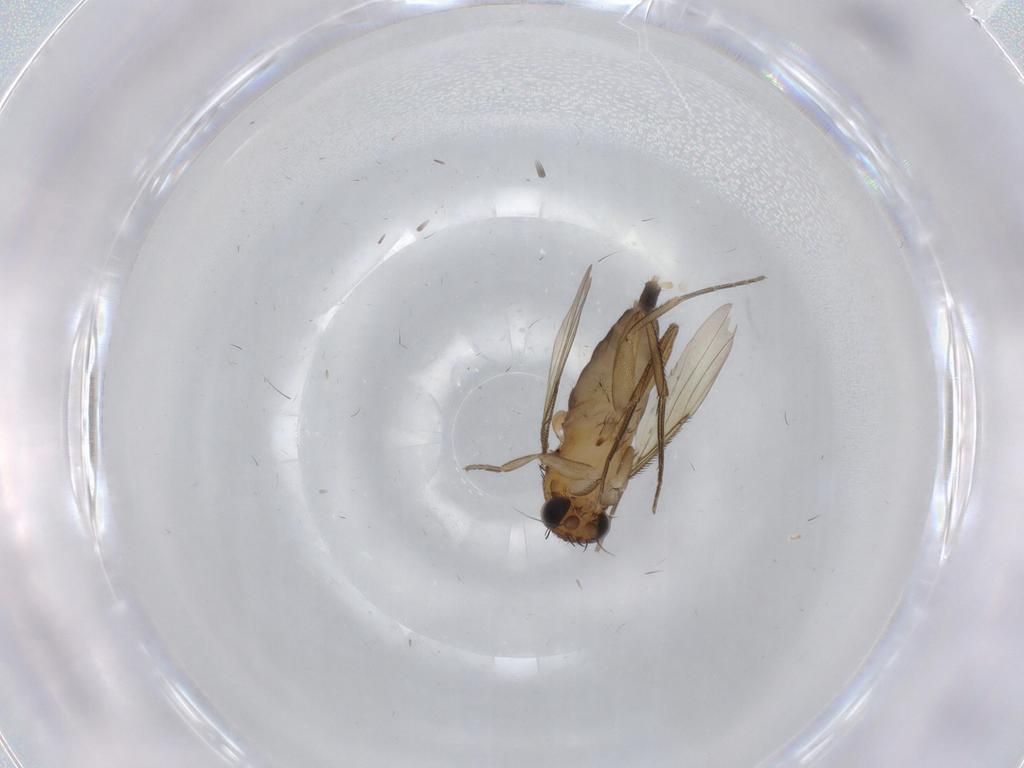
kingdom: Animalia
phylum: Arthropoda
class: Insecta
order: Diptera
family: Phoridae
